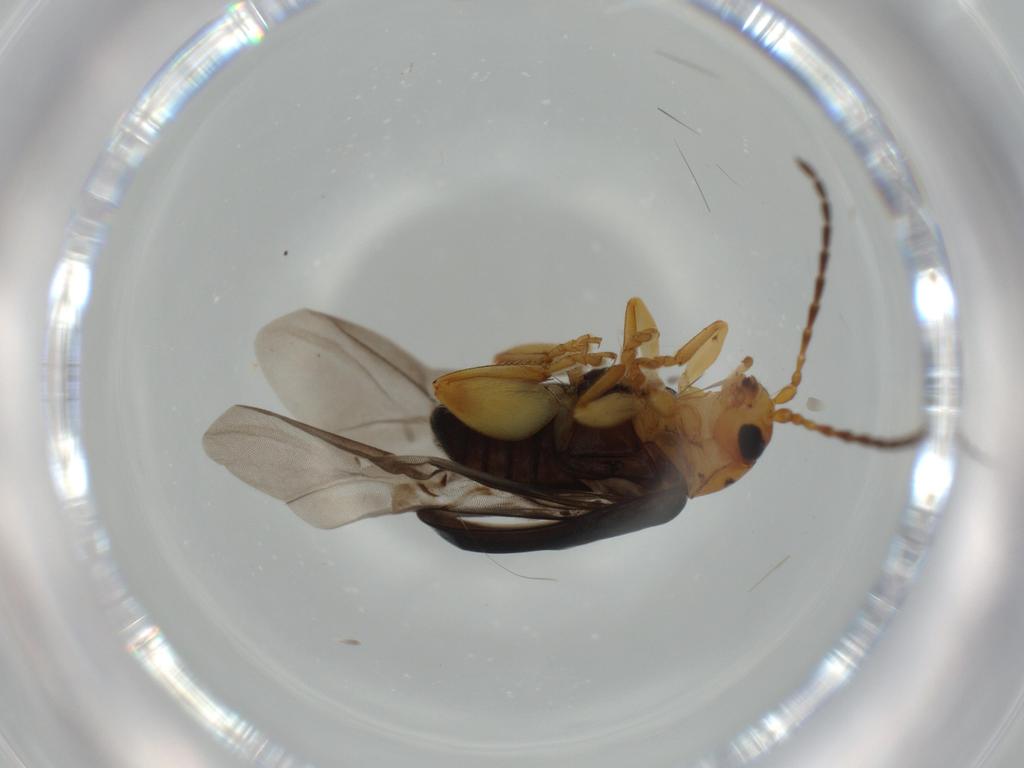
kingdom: Animalia
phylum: Arthropoda
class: Insecta
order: Coleoptera
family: Chrysomelidae
